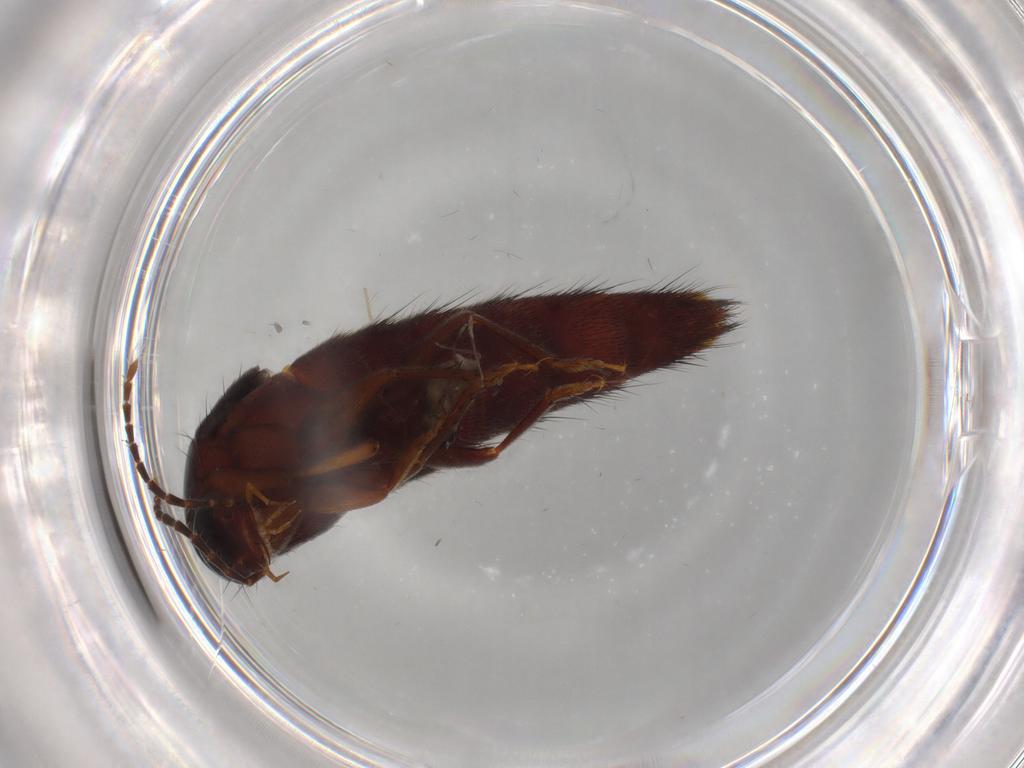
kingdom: Animalia
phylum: Arthropoda
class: Insecta
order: Coleoptera
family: Staphylinidae
